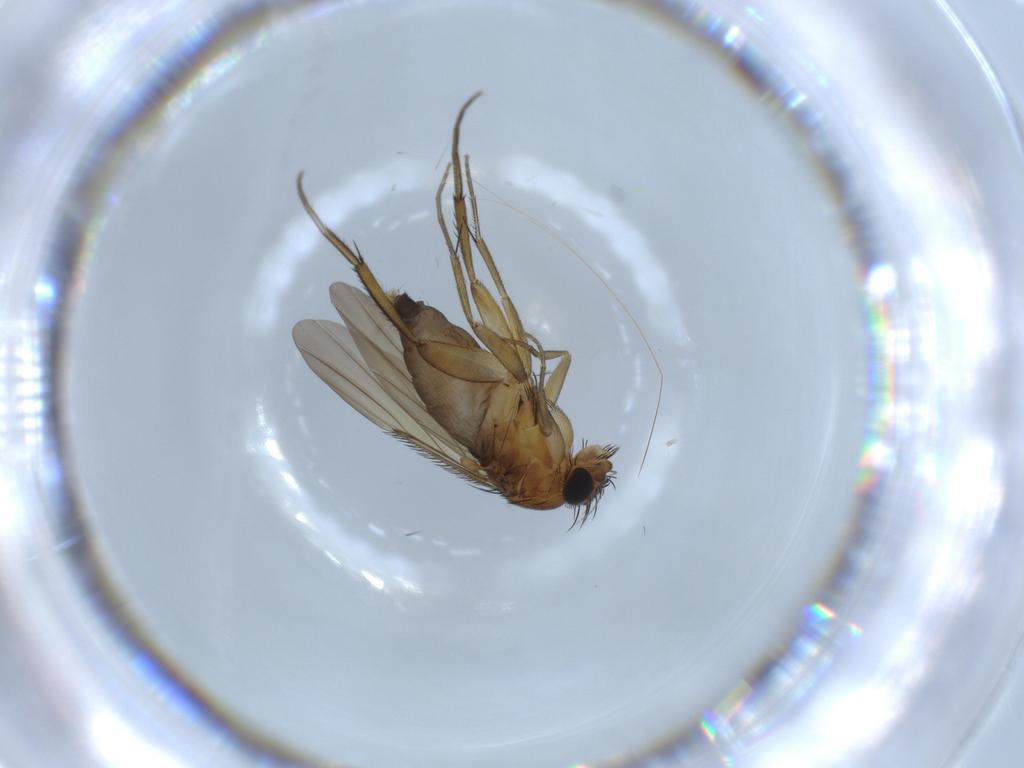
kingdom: Animalia
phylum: Arthropoda
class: Insecta
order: Diptera
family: Phoridae
